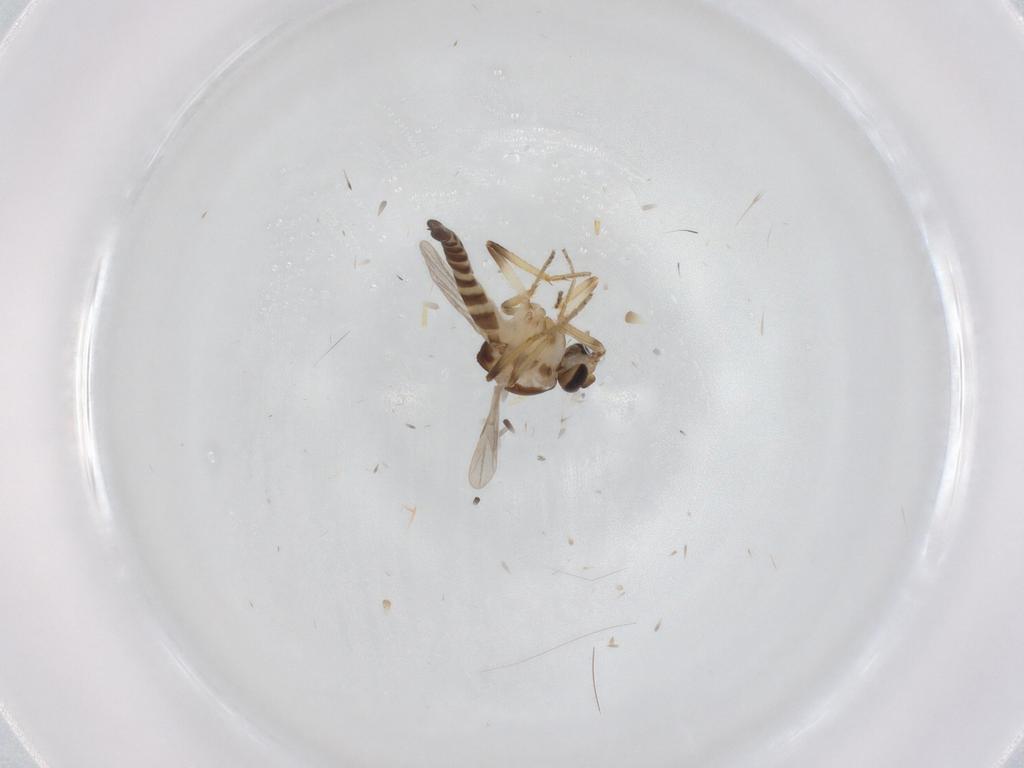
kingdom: Animalia
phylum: Arthropoda
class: Insecta
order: Diptera
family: Ceratopogonidae
